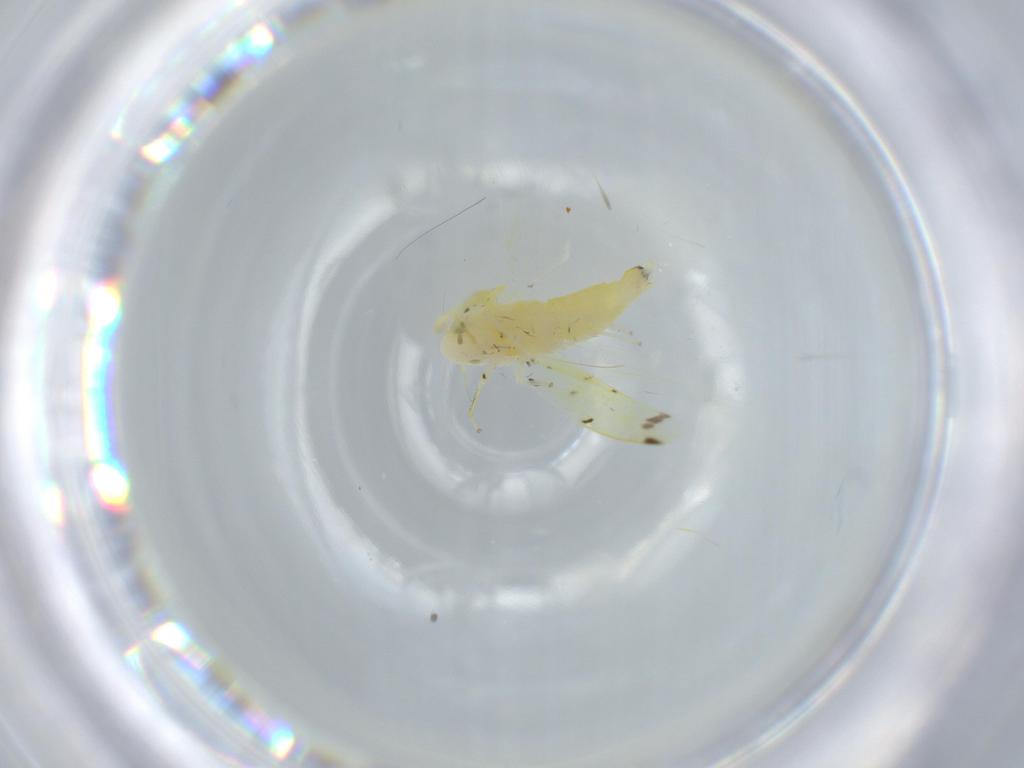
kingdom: Animalia
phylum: Arthropoda
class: Insecta
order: Hemiptera
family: Cicadellidae
